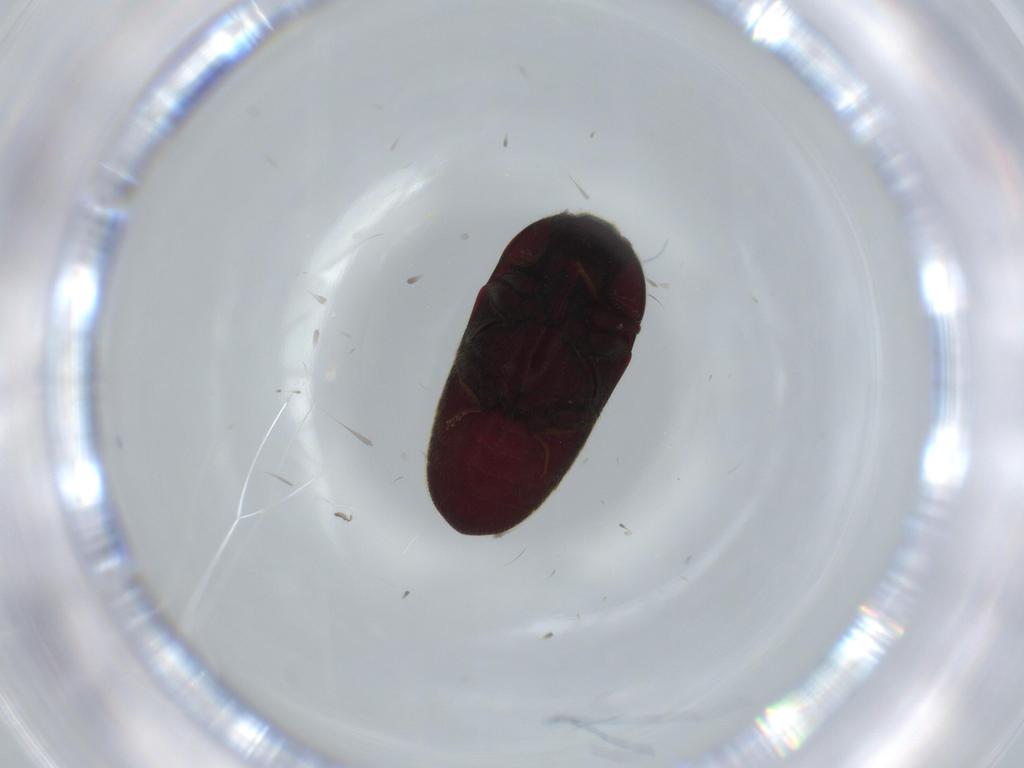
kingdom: Animalia
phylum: Arthropoda
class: Insecta
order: Coleoptera
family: Throscidae
